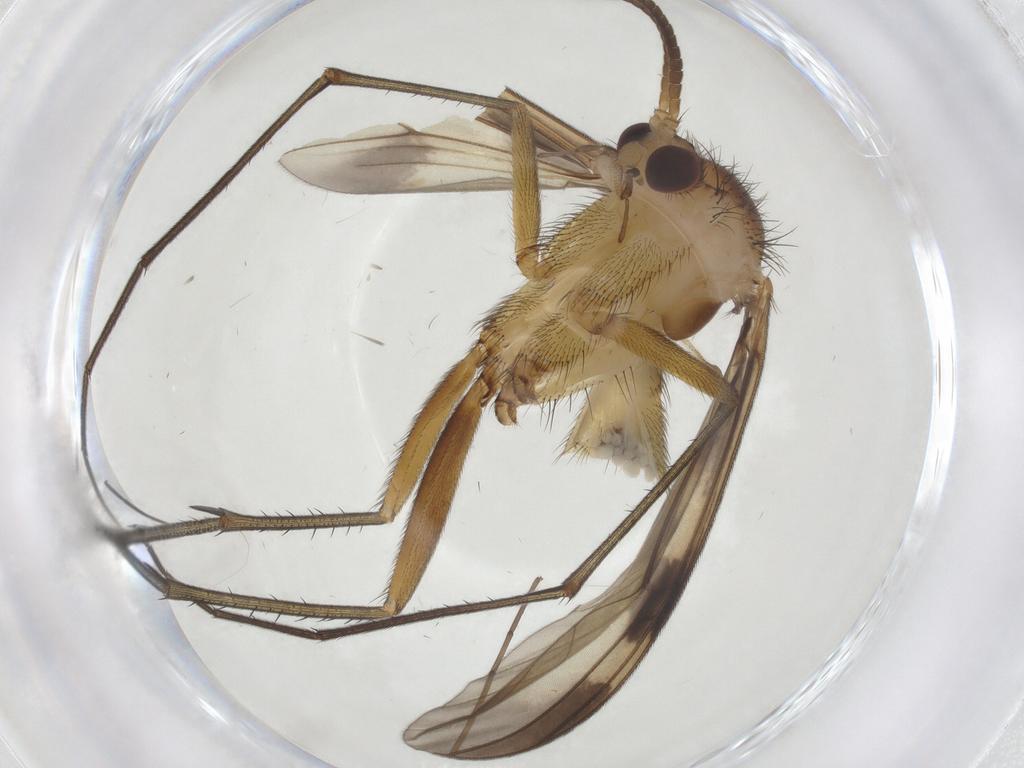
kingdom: Animalia
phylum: Arthropoda
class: Insecta
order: Diptera
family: Mycetophilidae
